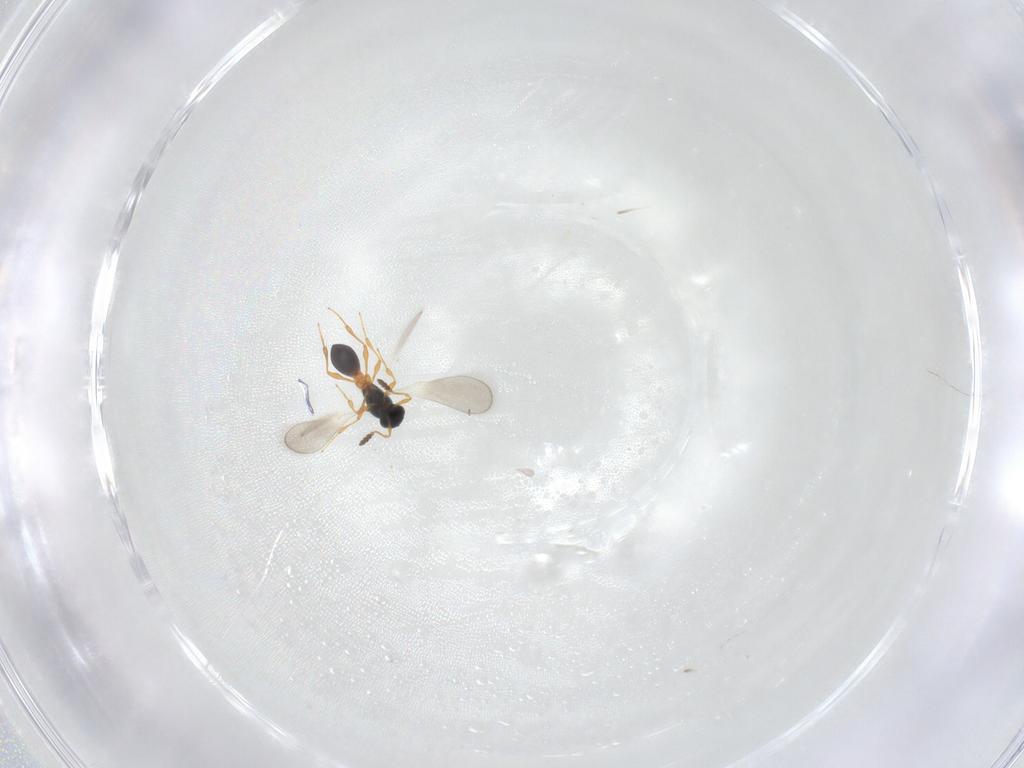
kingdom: Animalia
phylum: Arthropoda
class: Insecta
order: Hymenoptera
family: Platygastridae
